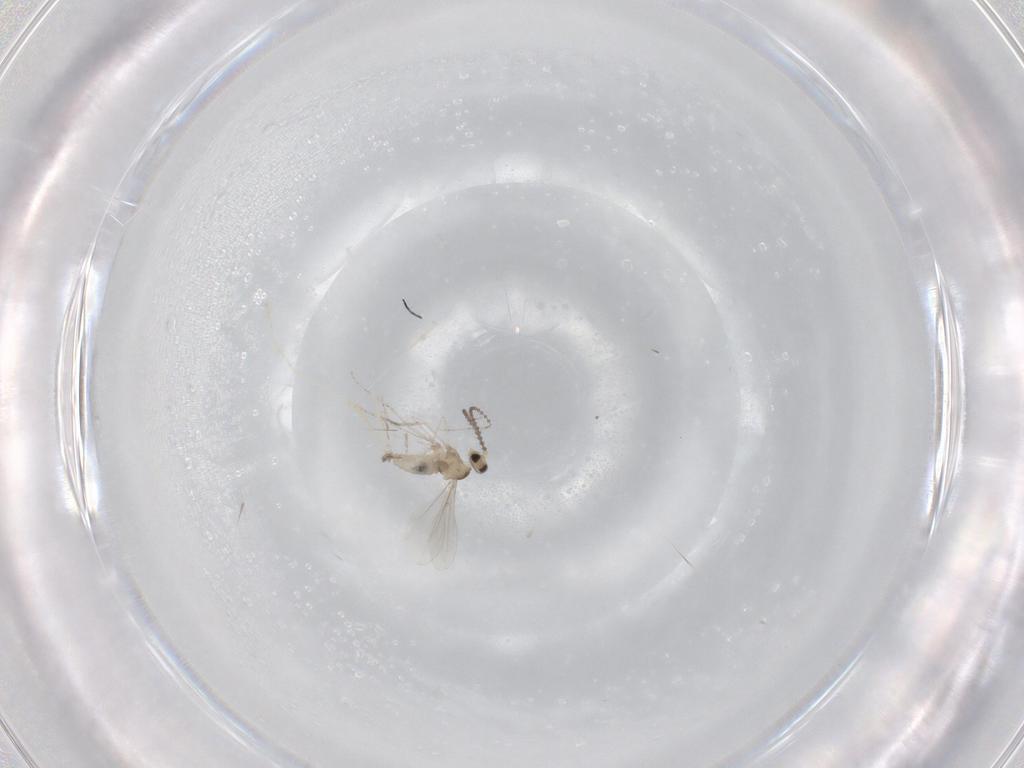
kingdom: Animalia
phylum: Arthropoda
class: Insecta
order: Diptera
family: Cecidomyiidae
